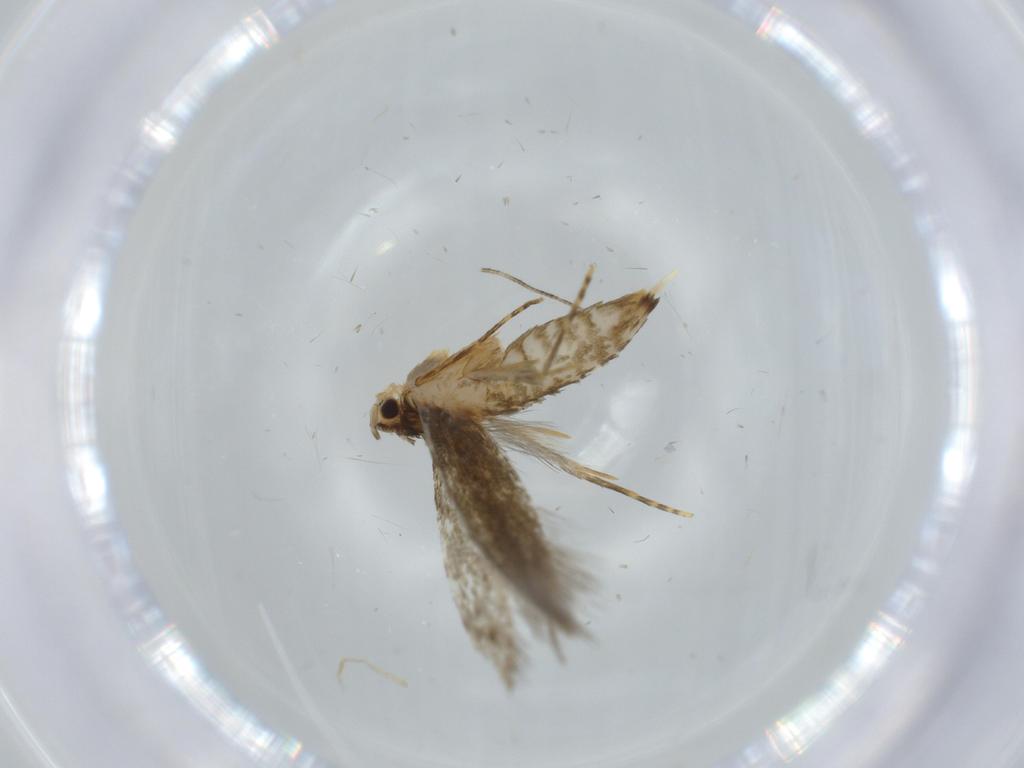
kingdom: Animalia
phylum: Arthropoda
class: Insecta
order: Lepidoptera
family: Tineidae
